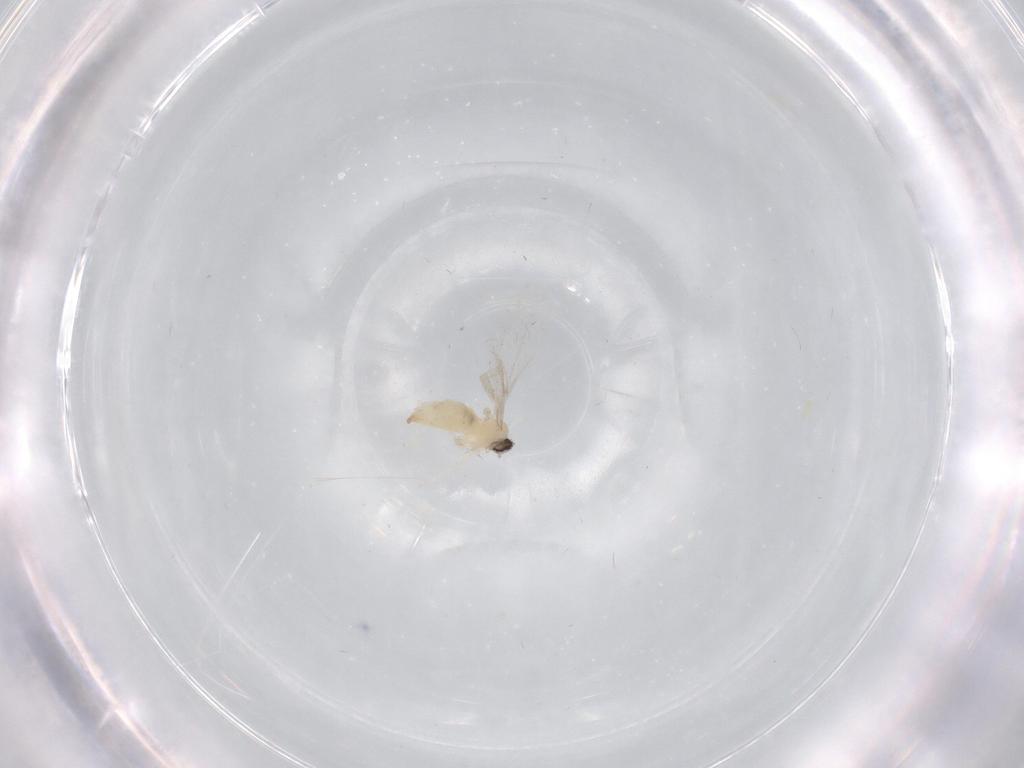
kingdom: Animalia
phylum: Arthropoda
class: Insecta
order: Diptera
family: Cecidomyiidae
